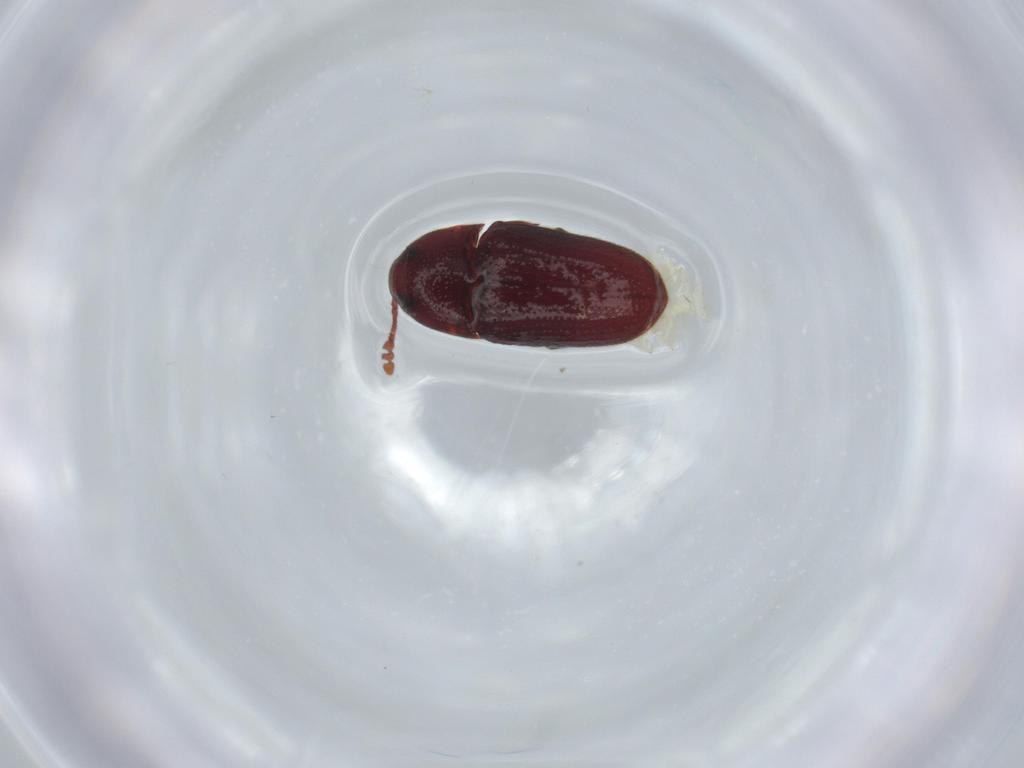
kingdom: Animalia
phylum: Arthropoda
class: Insecta
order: Coleoptera
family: Throscidae
